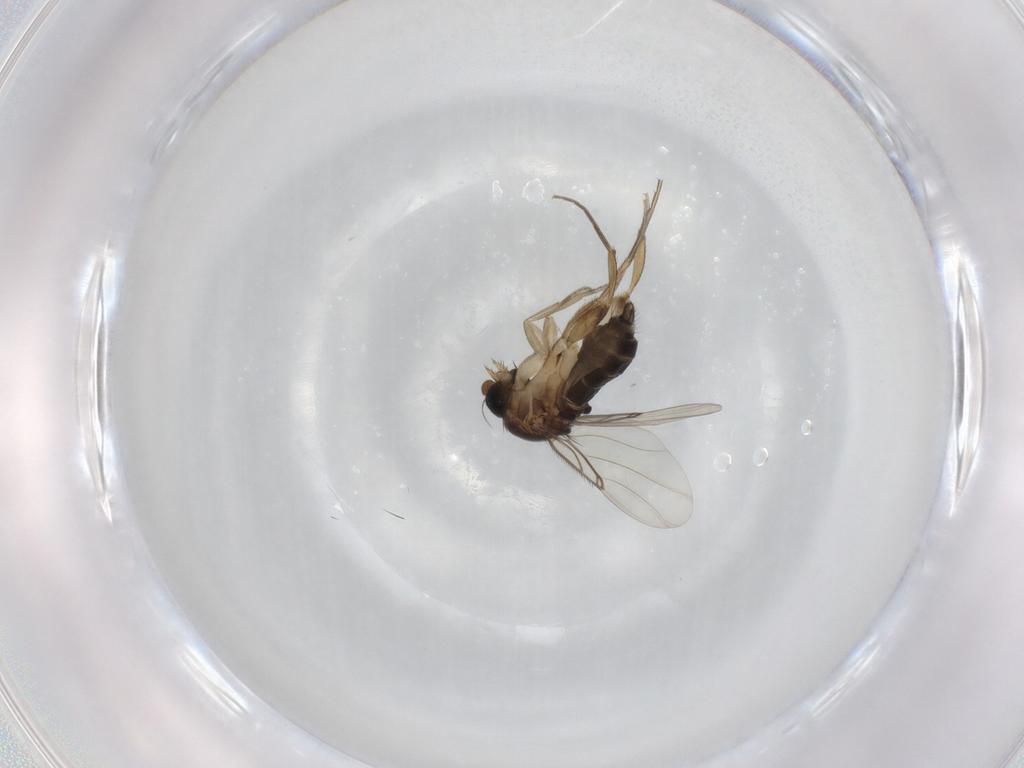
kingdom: Animalia
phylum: Arthropoda
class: Insecta
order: Diptera
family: Phoridae
